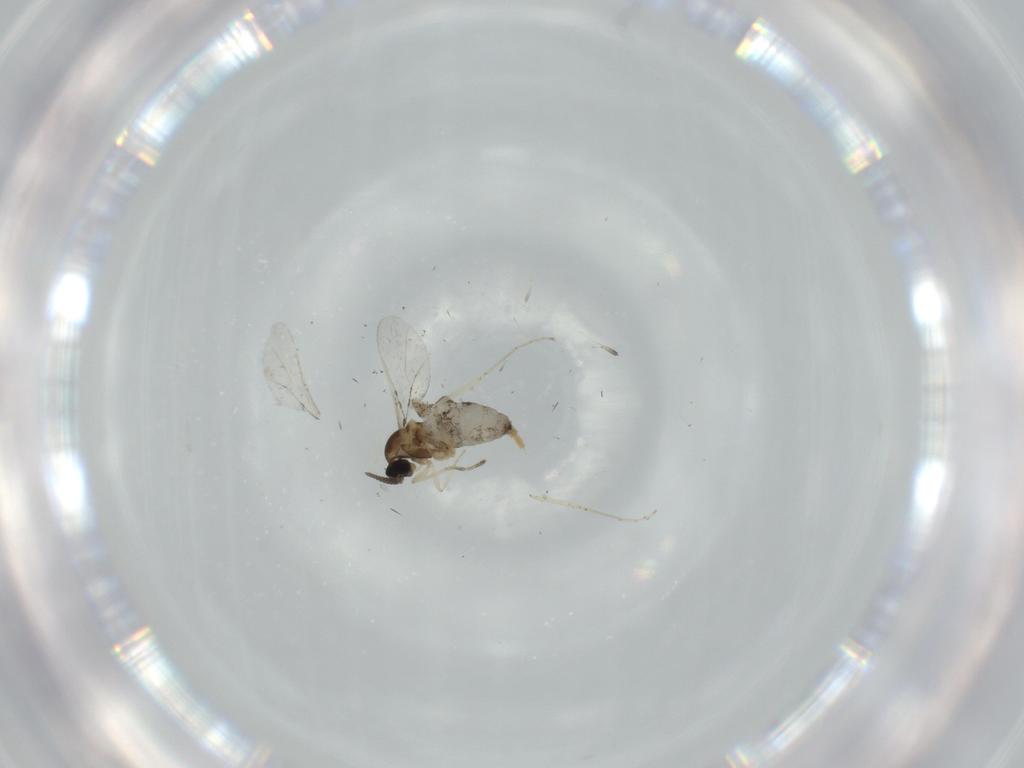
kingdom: Animalia
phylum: Arthropoda
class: Insecta
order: Diptera
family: Cecidomyiidae
